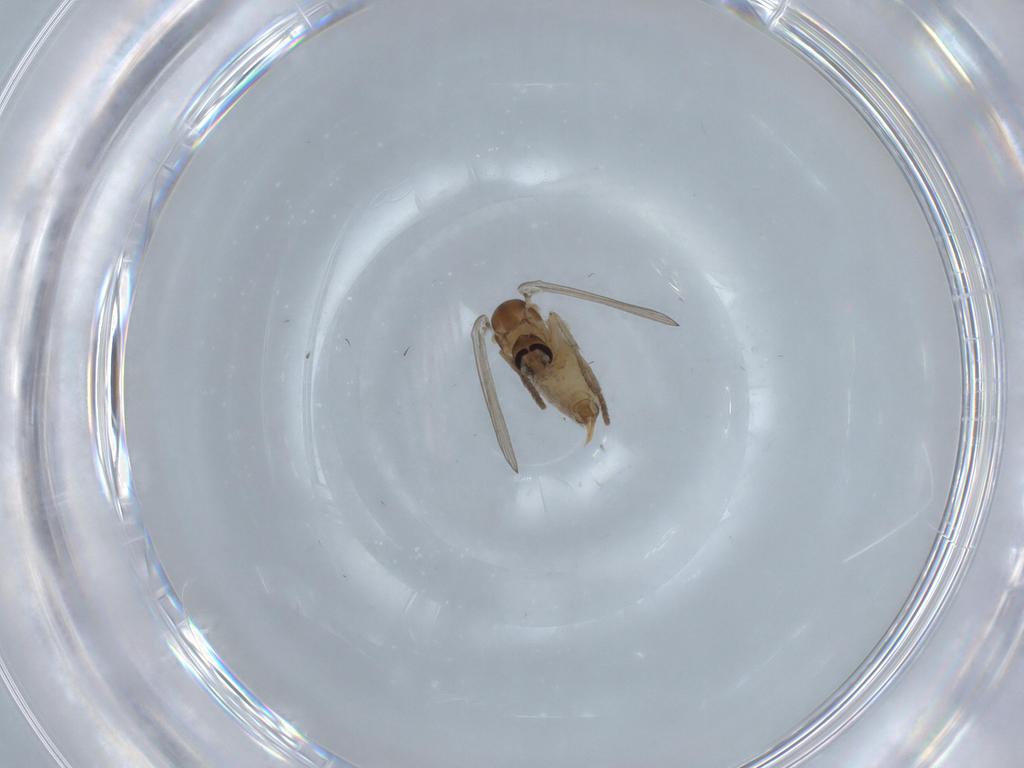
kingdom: Animalia
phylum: Arthropoda
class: Insecta
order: Diptera
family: Psychodidae
